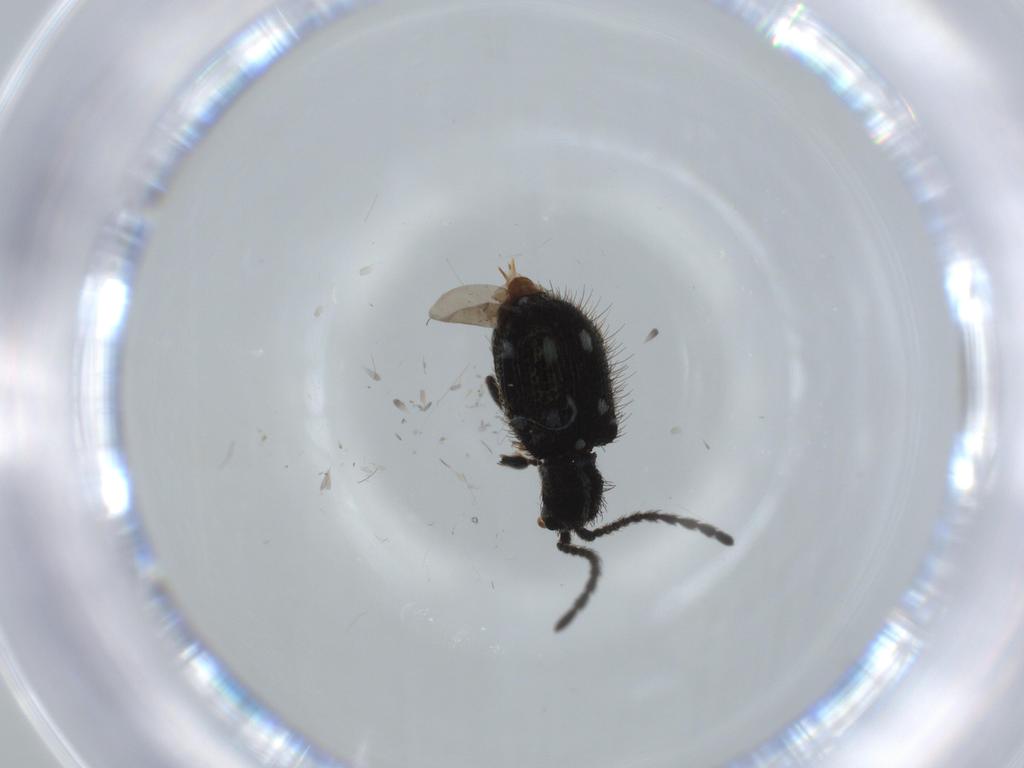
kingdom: Animalia
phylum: Arthropoda
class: Insecta
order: Coleoptera
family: Ptinidae
